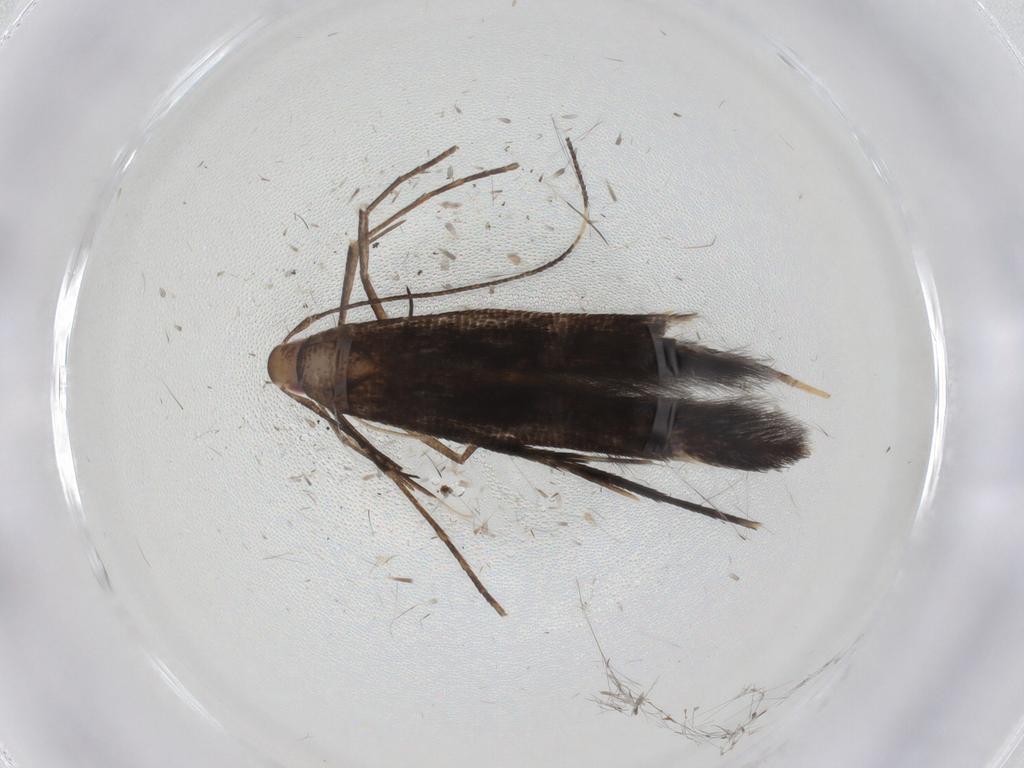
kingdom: Animalia
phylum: Arthropoda
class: Insecta
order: Lepidoptera
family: Cosmopterigidae
